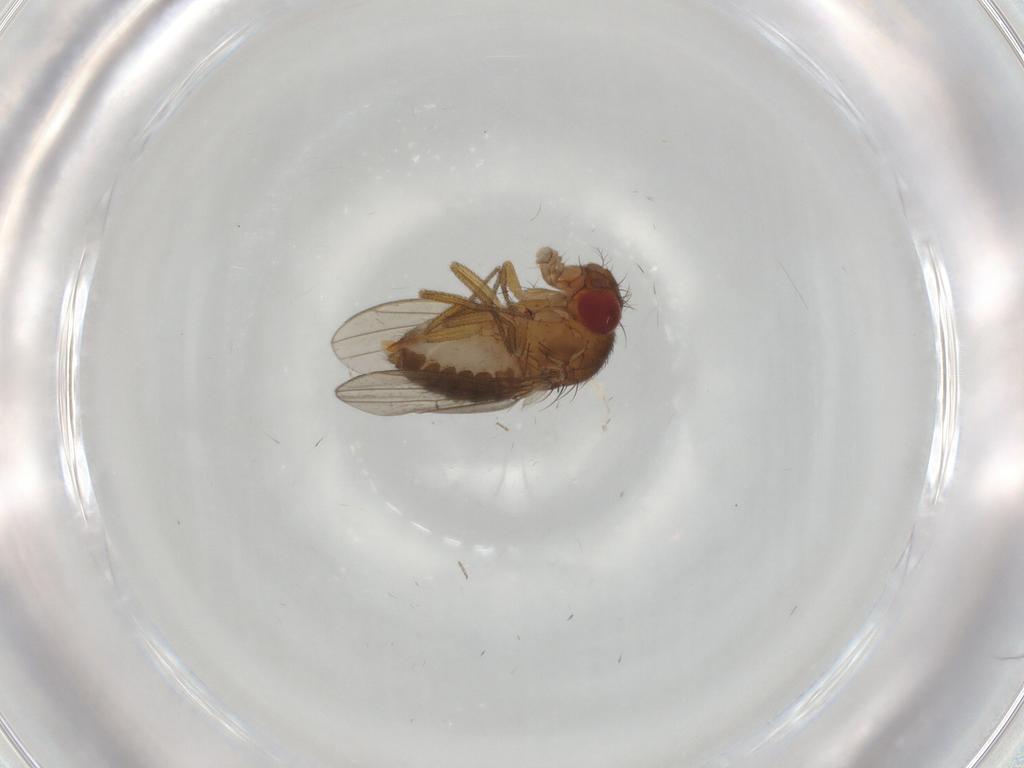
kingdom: Animalia
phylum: Arthropoda
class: Insecta
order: Diptera
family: Drosophilidae
